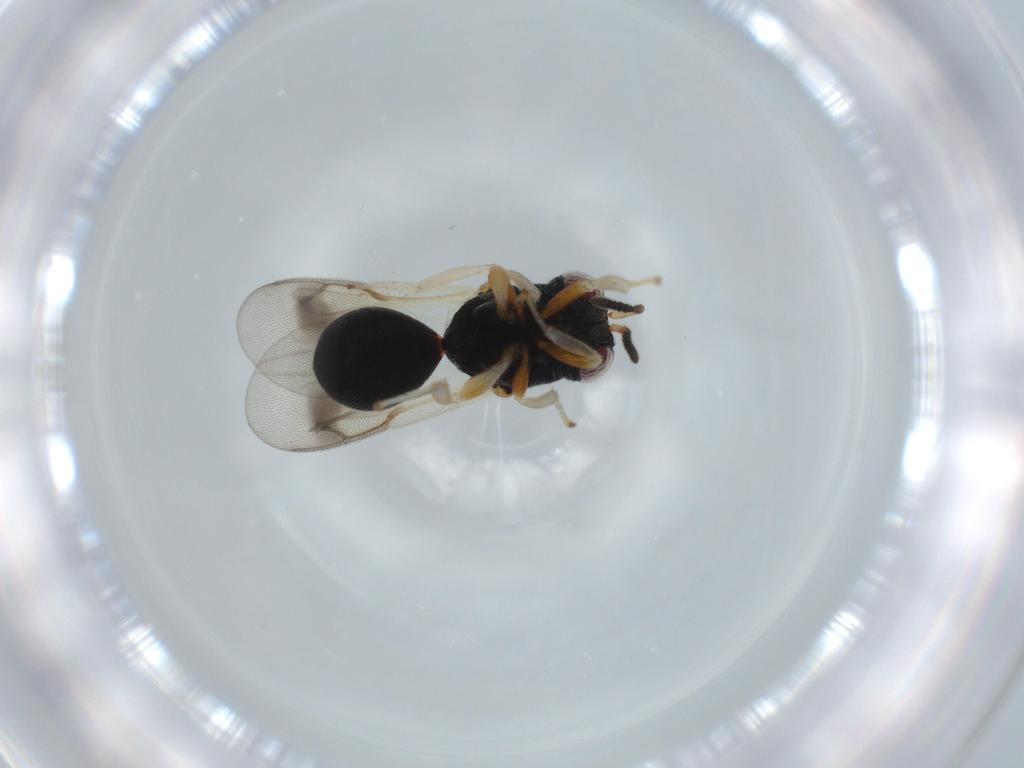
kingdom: Animalia
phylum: Arthropoda
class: Insecta
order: Hymenoptera
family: Eurytomidae
